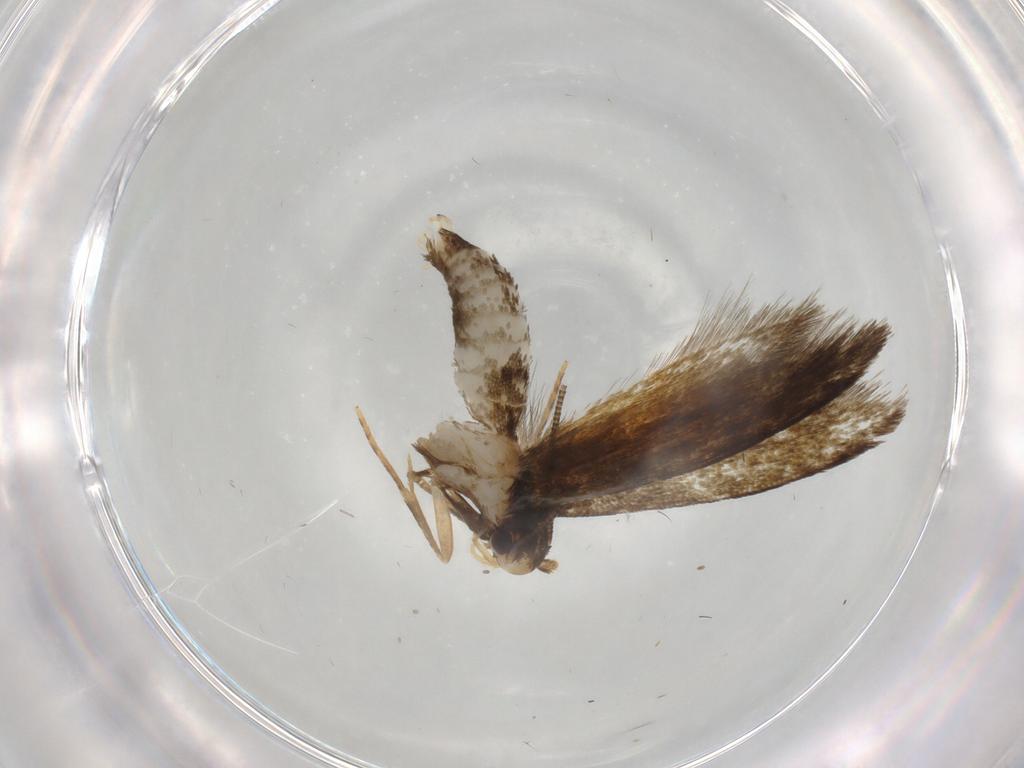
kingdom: Animalia
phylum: Arthropoda
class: Insecta
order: Lepidoptera
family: Tineidae
